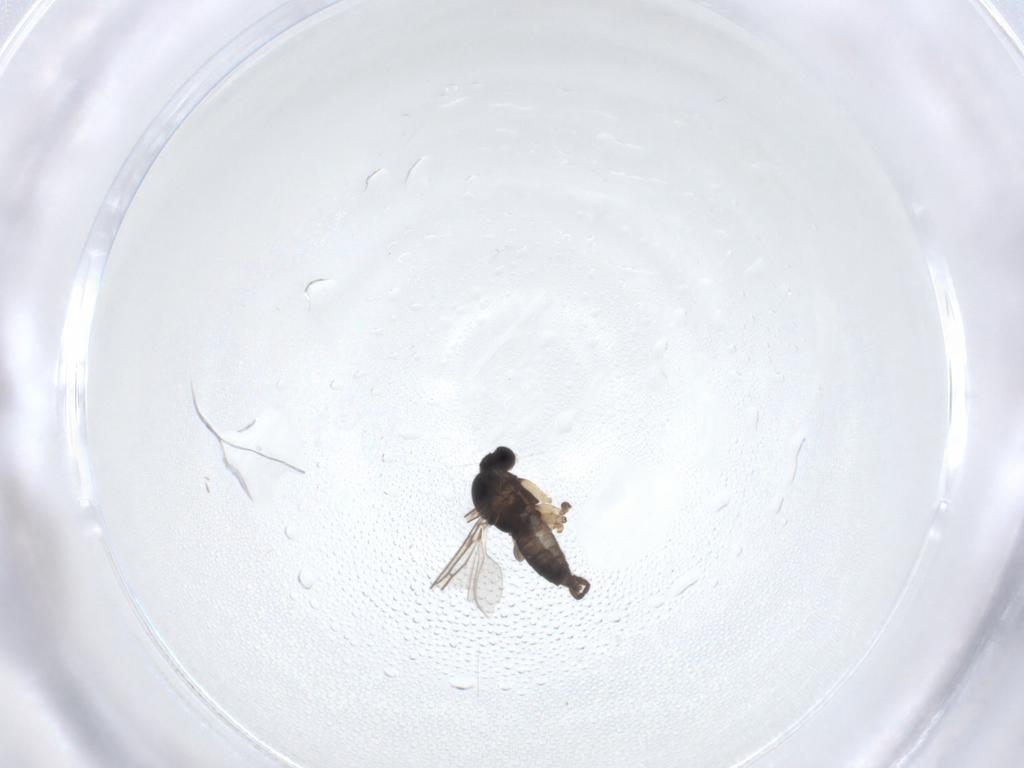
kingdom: Animalia
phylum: Arthropoda
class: Insecta
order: Diptera
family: Sciaridae
